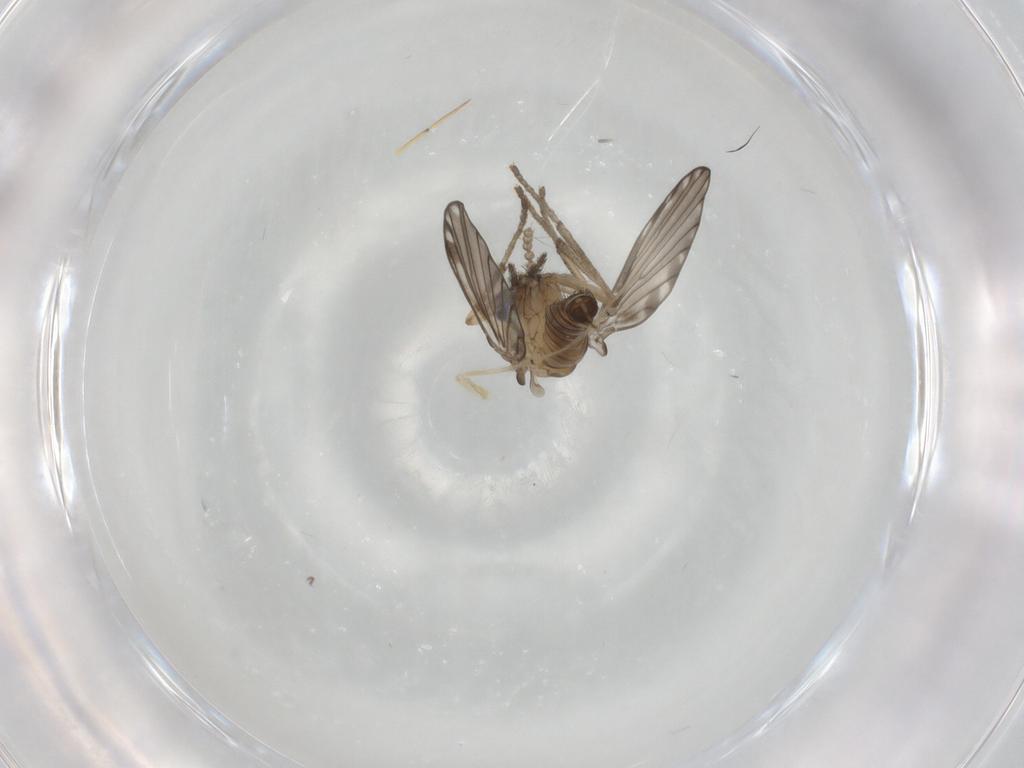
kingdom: Animalia
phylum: Arthropoda
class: Insecta
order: Diptera
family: Psychodidae
